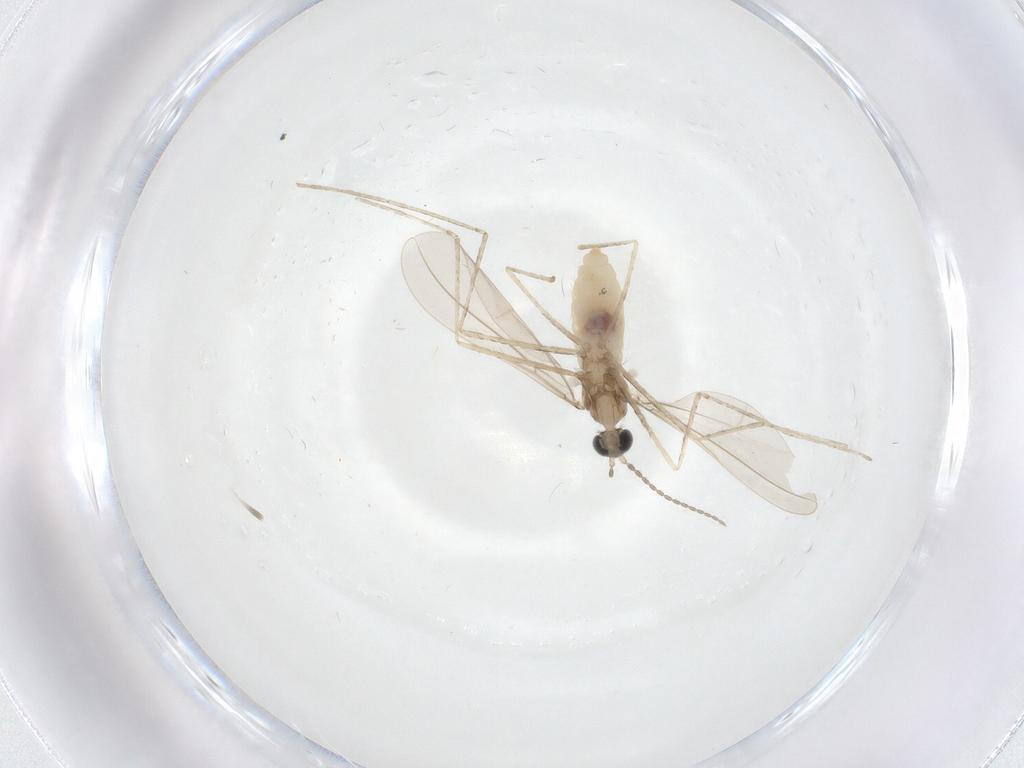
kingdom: Animalia
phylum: Arthropoda
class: Insecta
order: Diptera
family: Cecidomyiidae
